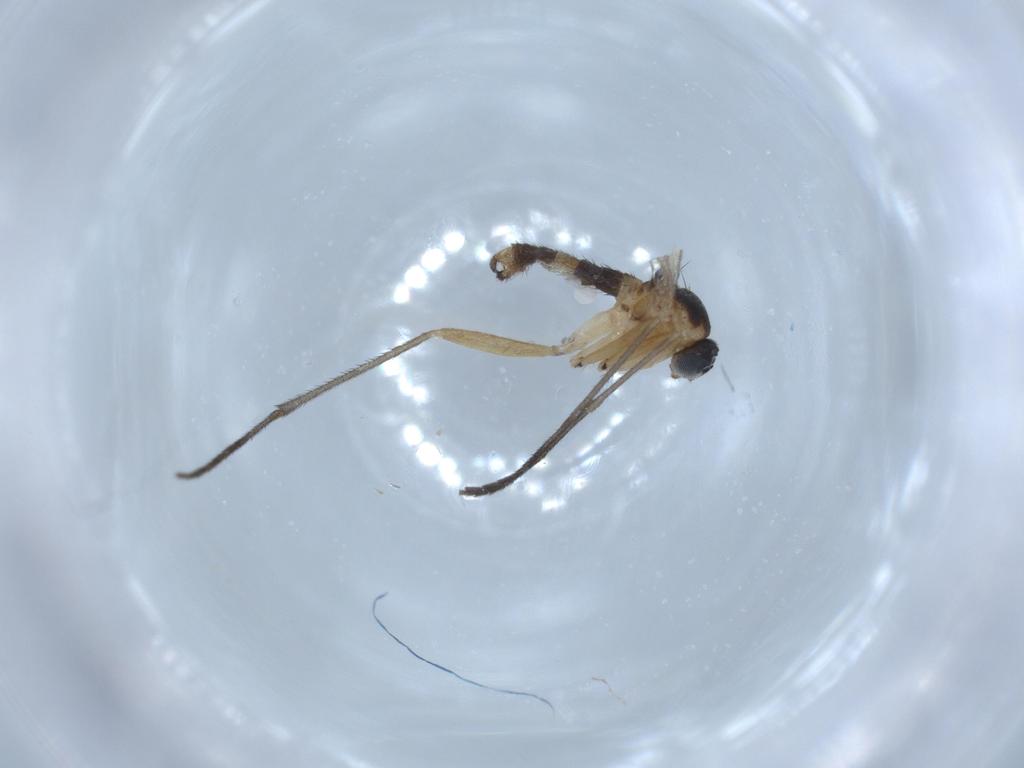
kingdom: Animalia
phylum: Arthropoda
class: Insecta
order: Diptera
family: Sciaridae
